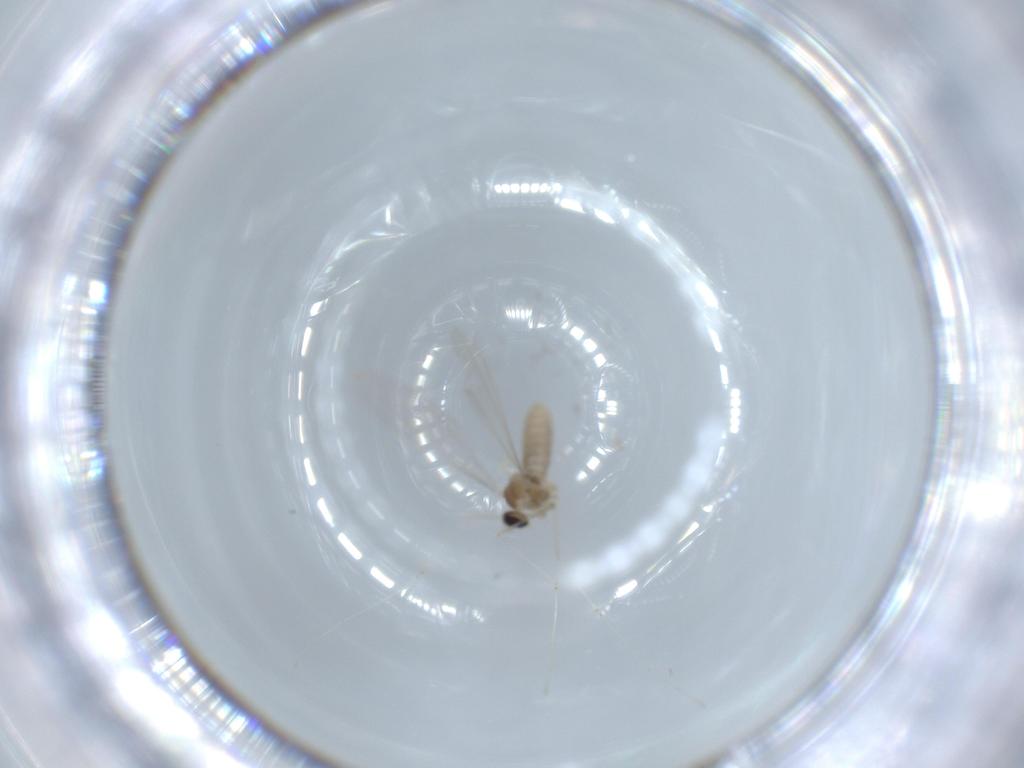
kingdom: Animalia
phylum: Arthropoda
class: Insecta
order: Diptera
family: Cecidomyiidae
